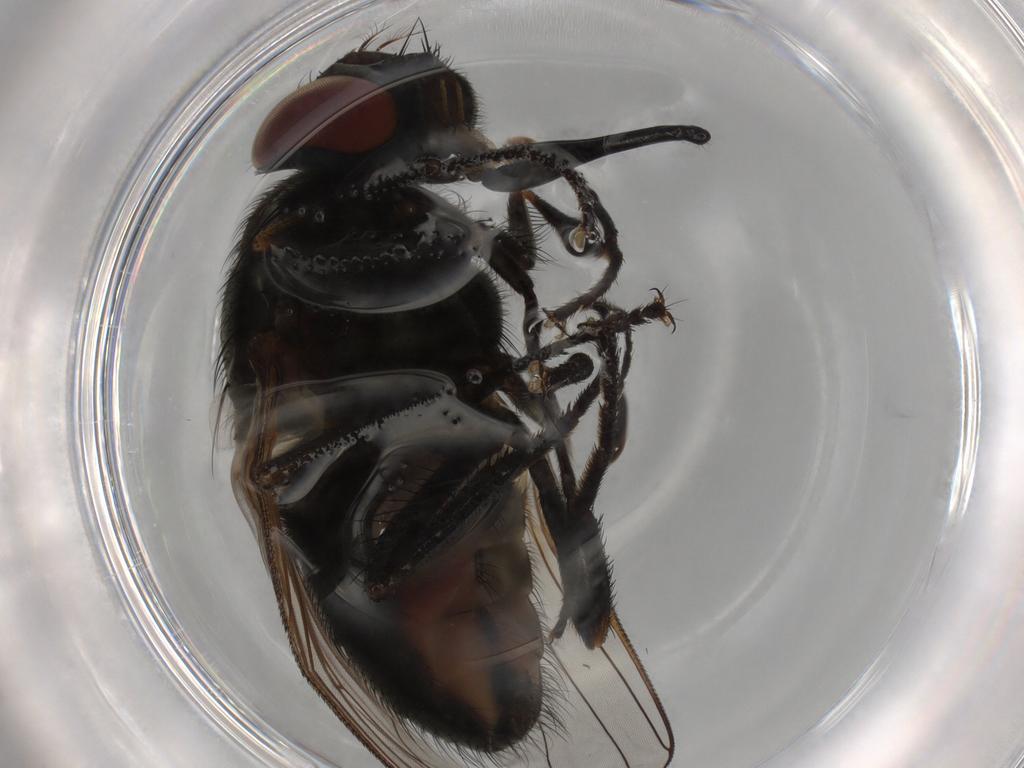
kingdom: Animalia
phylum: Arthropoda
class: Insecta
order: Diptera
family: Muscidae
